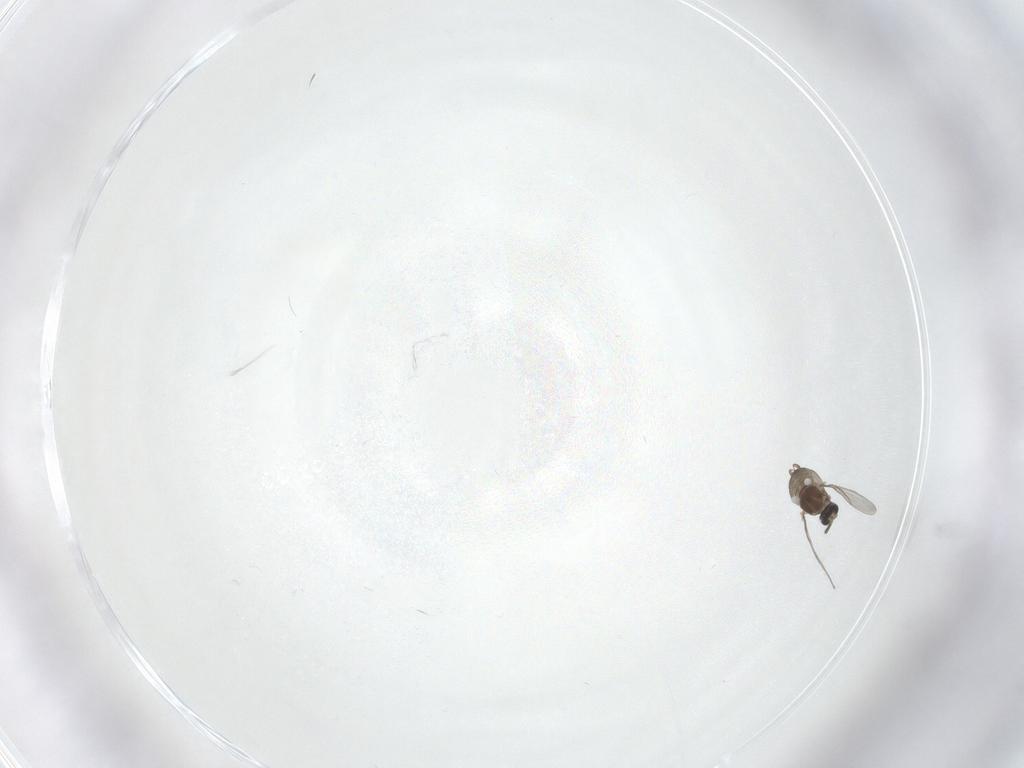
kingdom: Animalia
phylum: Arthropoda
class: Insecta
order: Diptera
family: Cecidomyiidae
